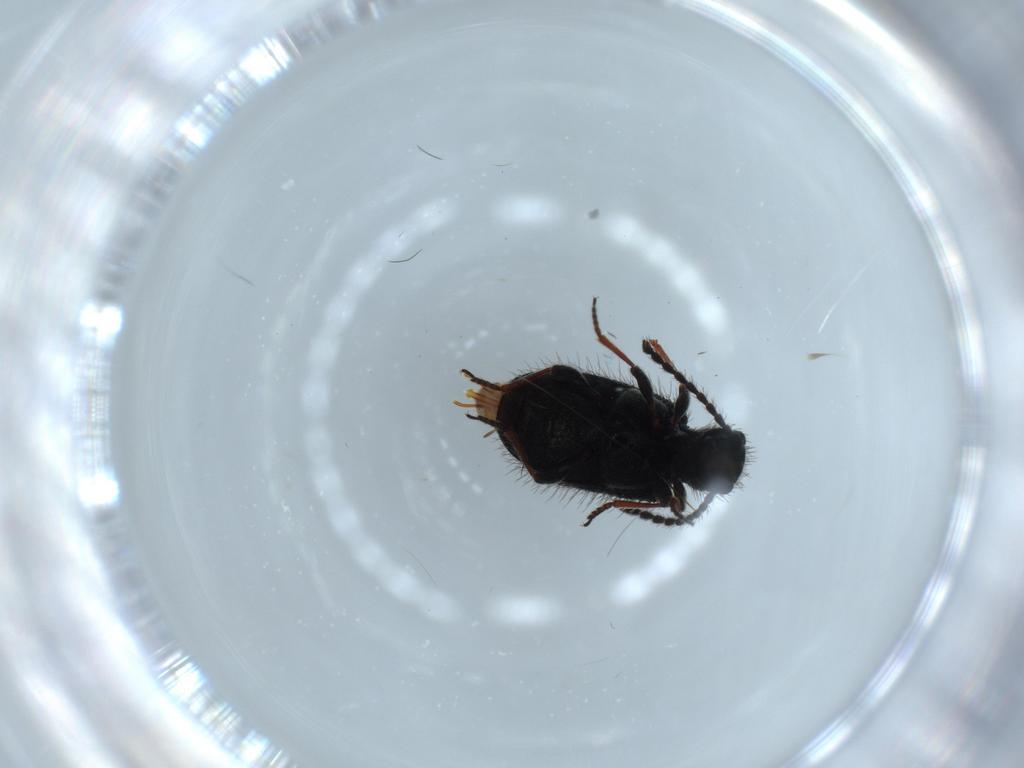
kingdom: Animalia
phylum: Arthropoda
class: Insecta
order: Coleoptera
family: Ptinidae
